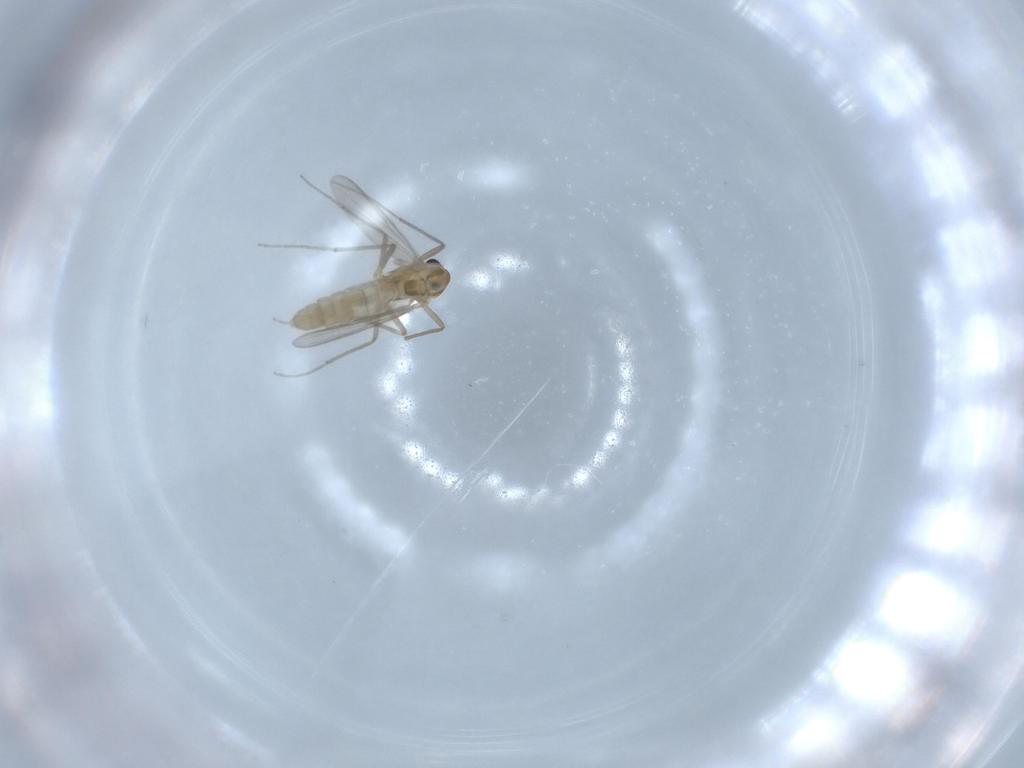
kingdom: Animalia
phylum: Arthropoda
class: Insecta
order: Diptera
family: Chironomidae
